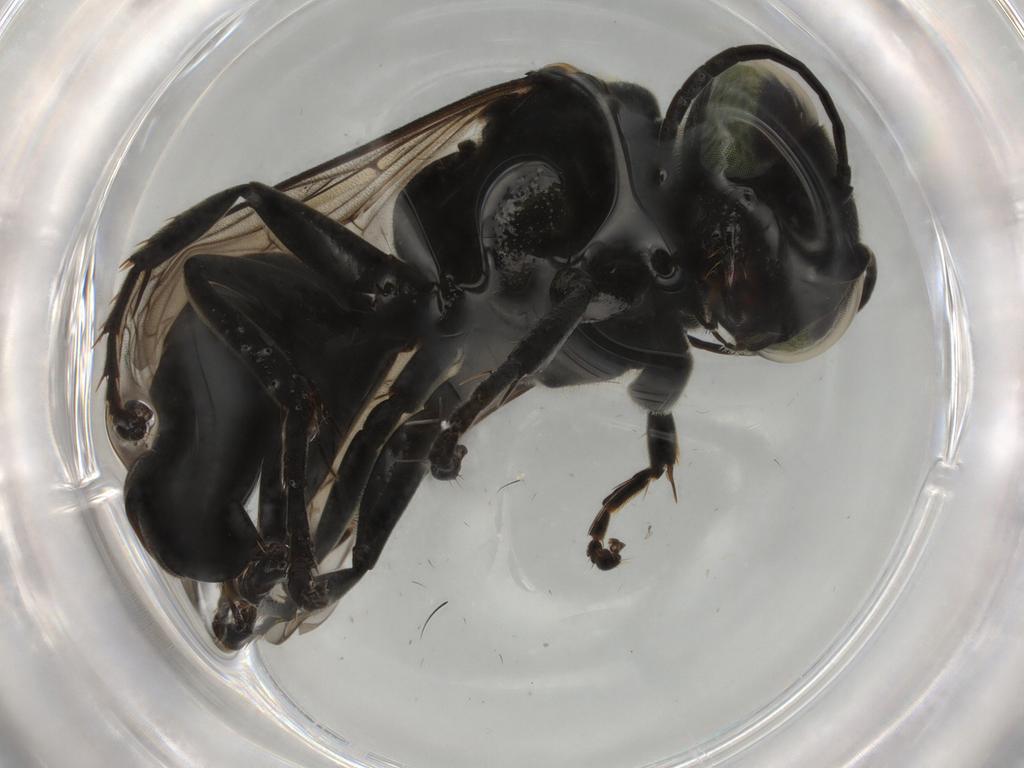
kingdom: Animalia
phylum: Arthropoda
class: Insecta
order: Hymenoptera
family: Crabronidae
